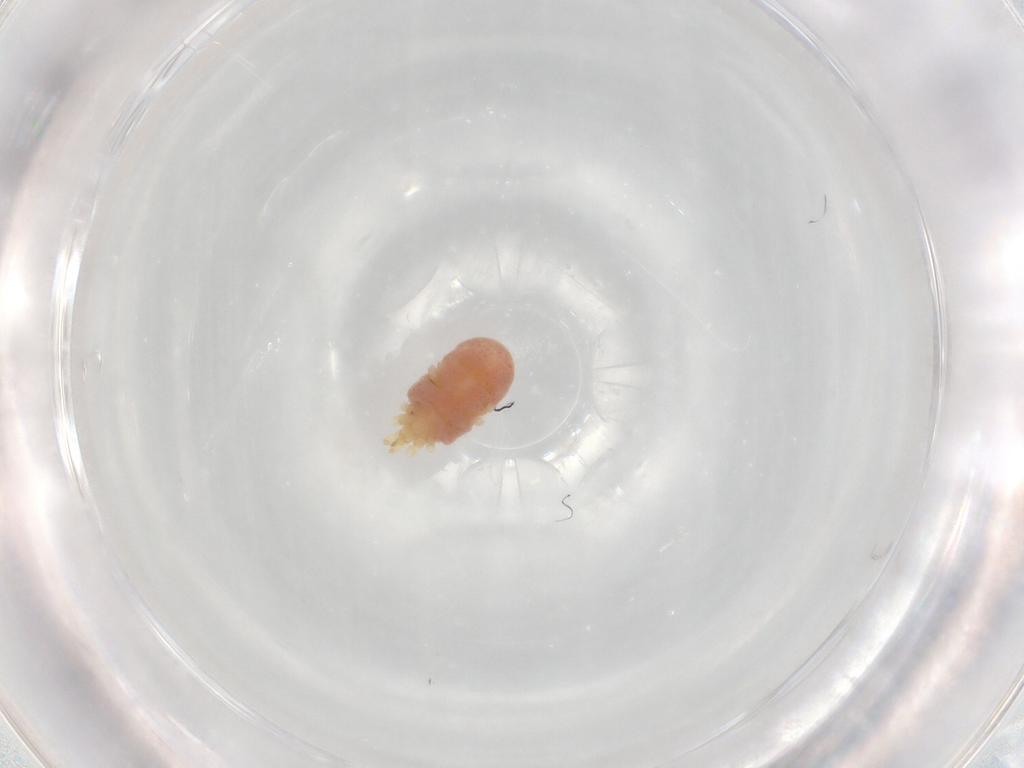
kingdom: Animalia
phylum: Arthropoda
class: Arachnida
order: Trombidiformes
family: Erythraeidae
